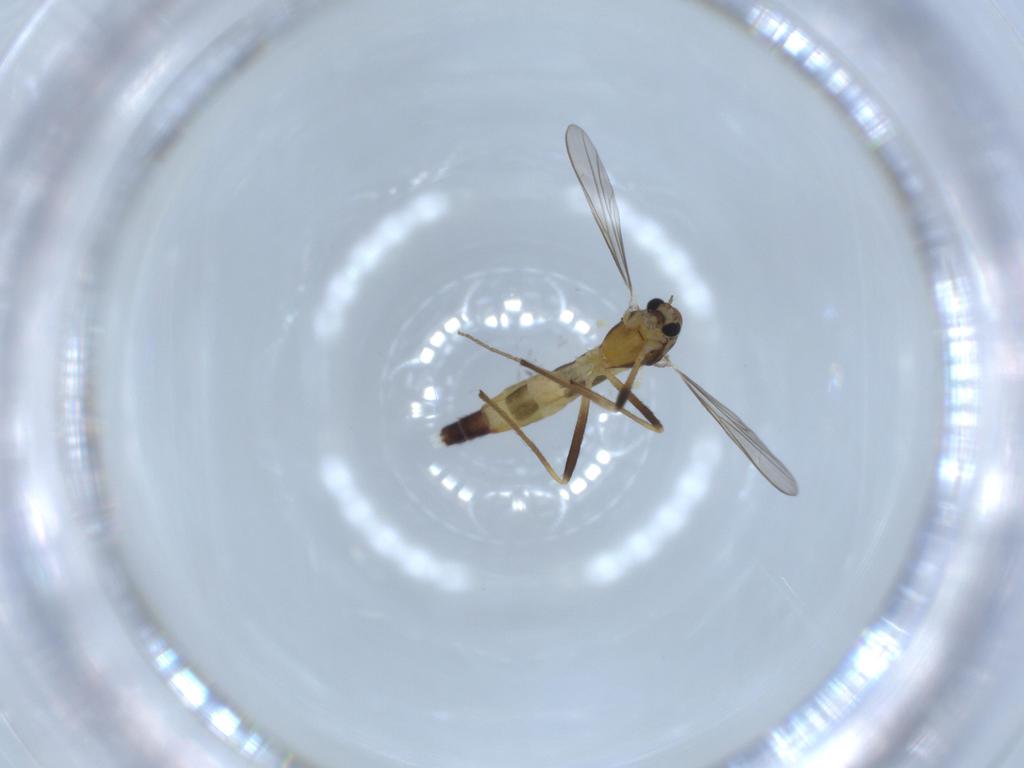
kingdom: Animalia
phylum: Arthropoda
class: Insecta
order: Diptera
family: Chironomidae
